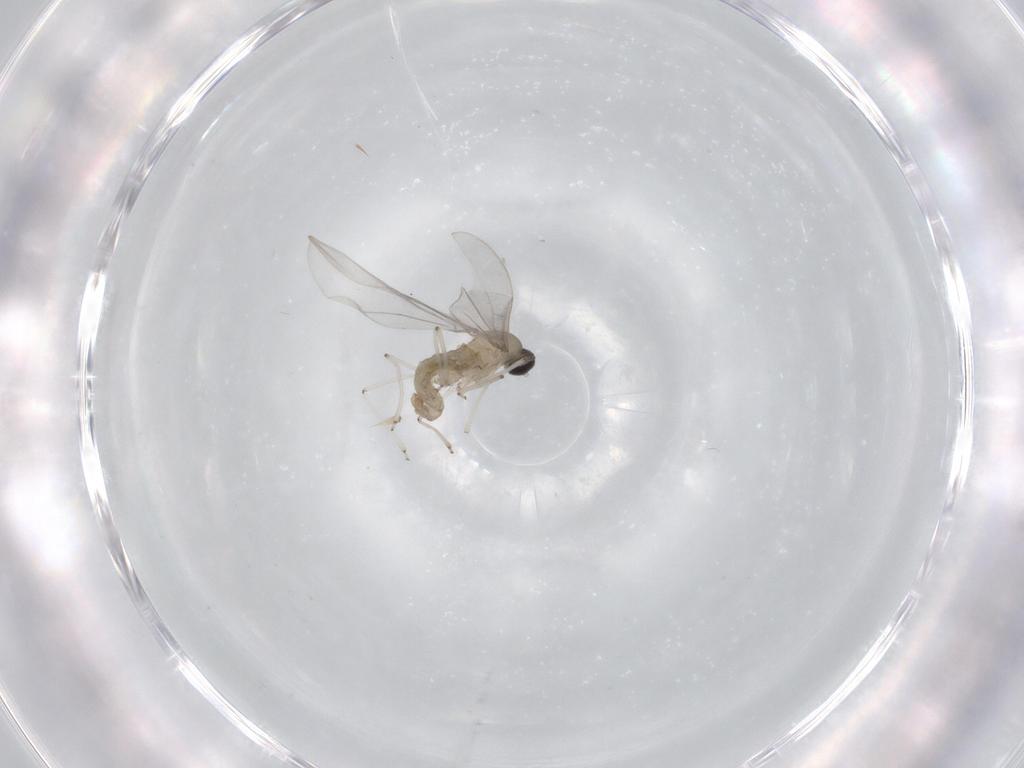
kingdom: Animalia
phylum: Arthropoda
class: Insecta
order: Diptera
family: Cecidomyiidae
